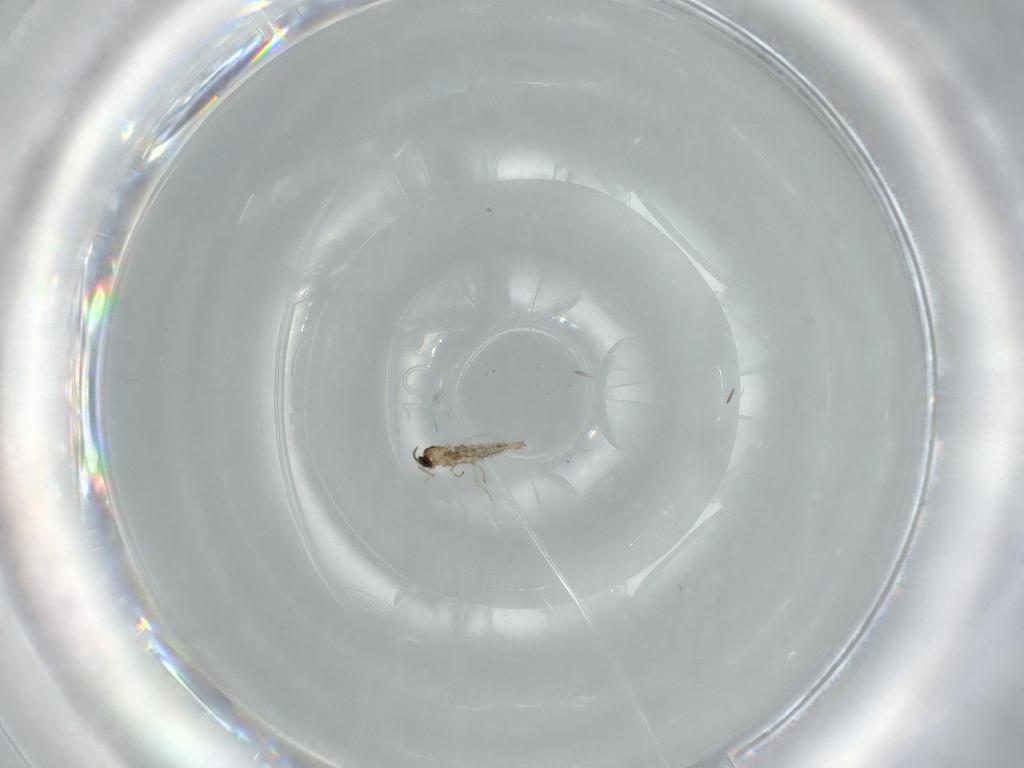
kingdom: Animalia
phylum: Arthropoda
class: Insecta
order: Diptera
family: Cecidomyiidae
